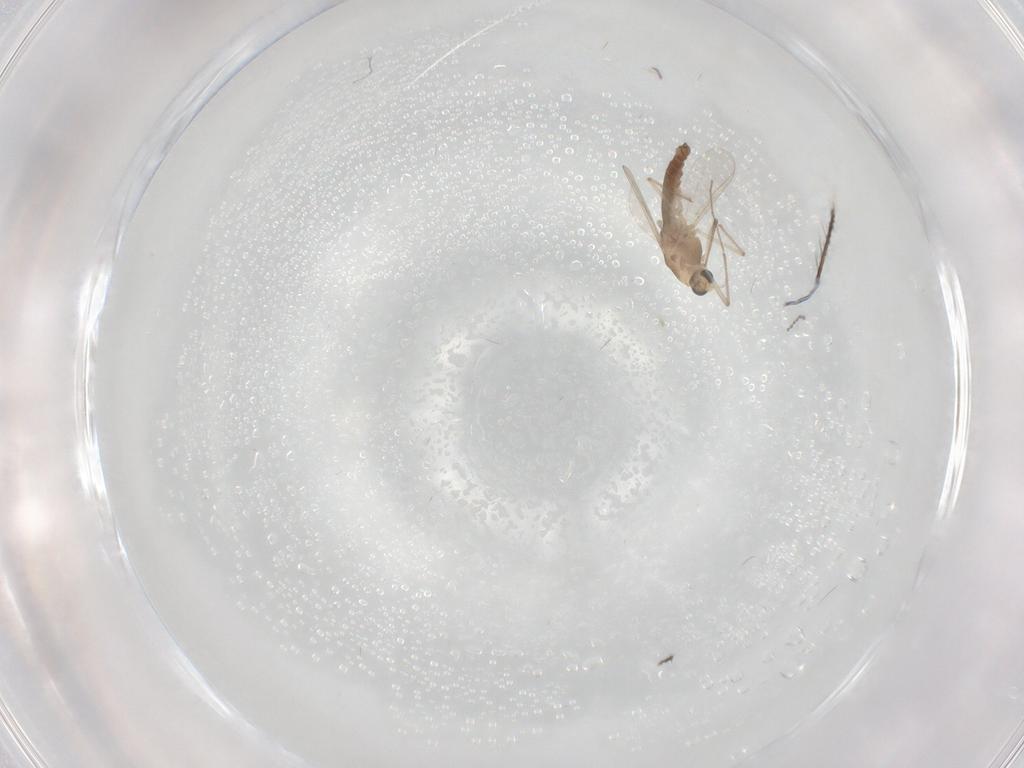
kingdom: Animalia
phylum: Arthropoda
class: Insecta
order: Diptera
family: Chironomidae
